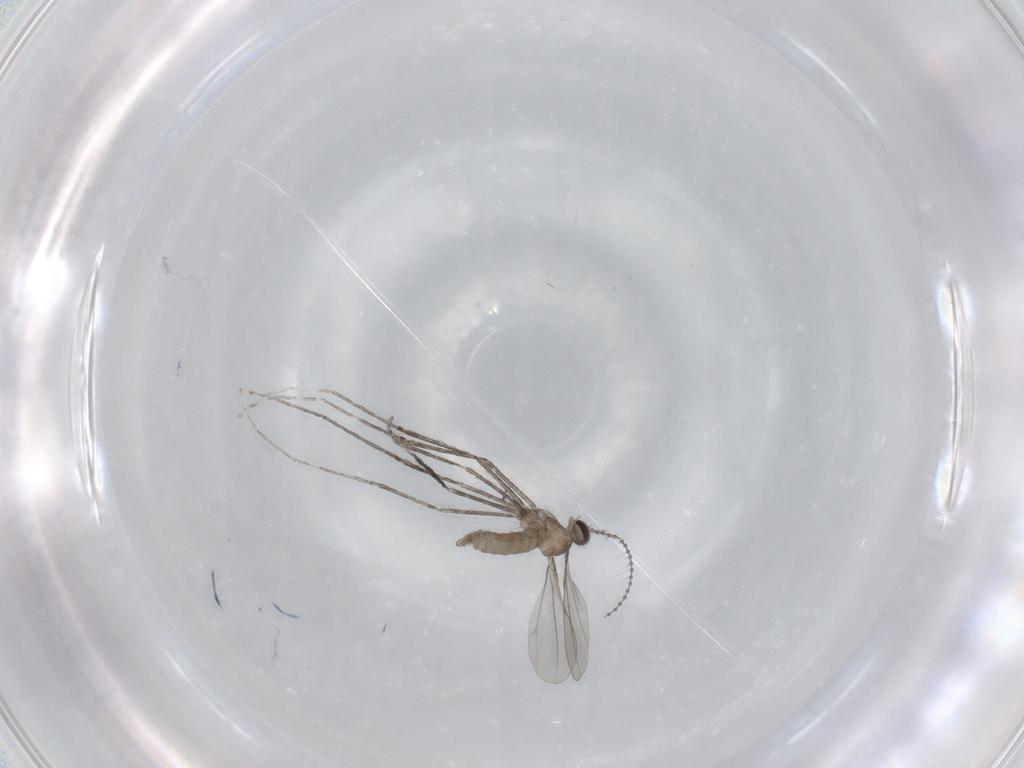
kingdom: Animalia
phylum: Arthropoda
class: Insecta
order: Diptera
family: Cecidomyiidae
